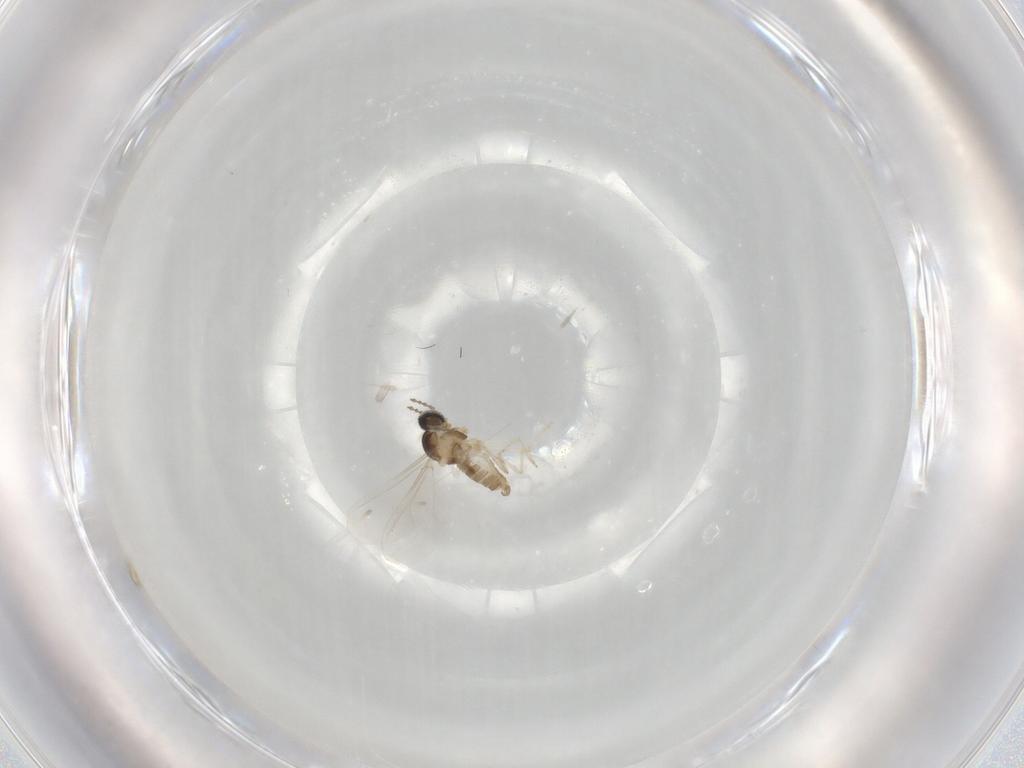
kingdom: Animalia
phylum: Arthropoda
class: Insecta
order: Diptera
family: Cecidomyiidae
